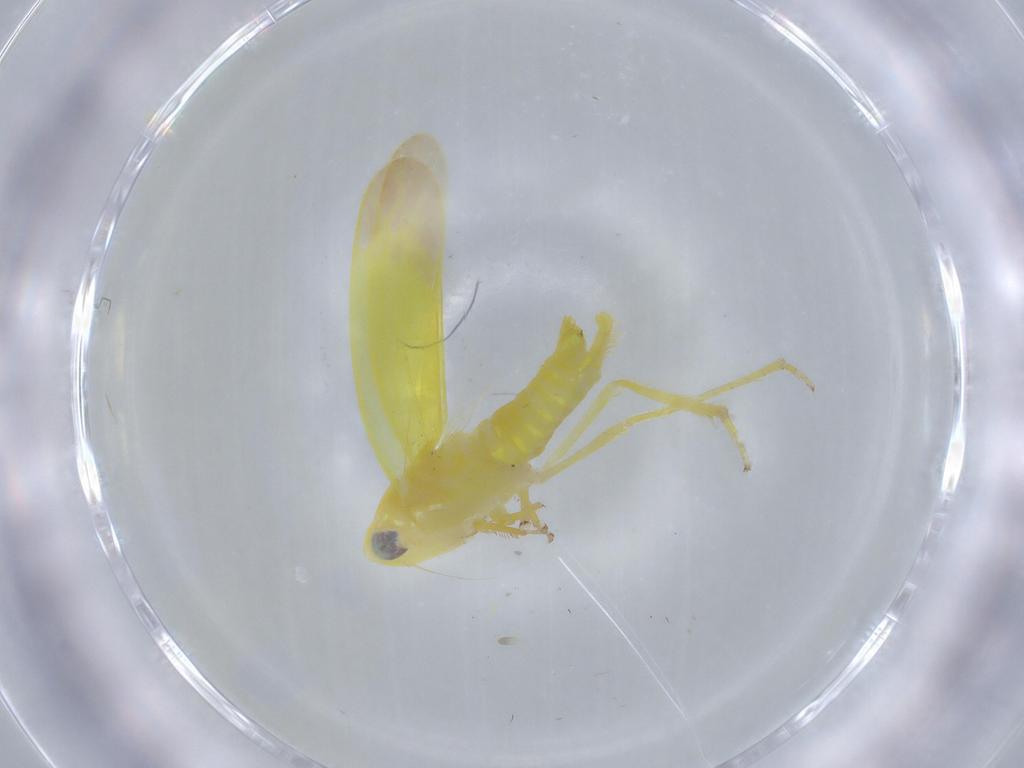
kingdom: Animalia
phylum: Arthropoda
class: Insecta
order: Hemiptera
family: Cicadellidae
